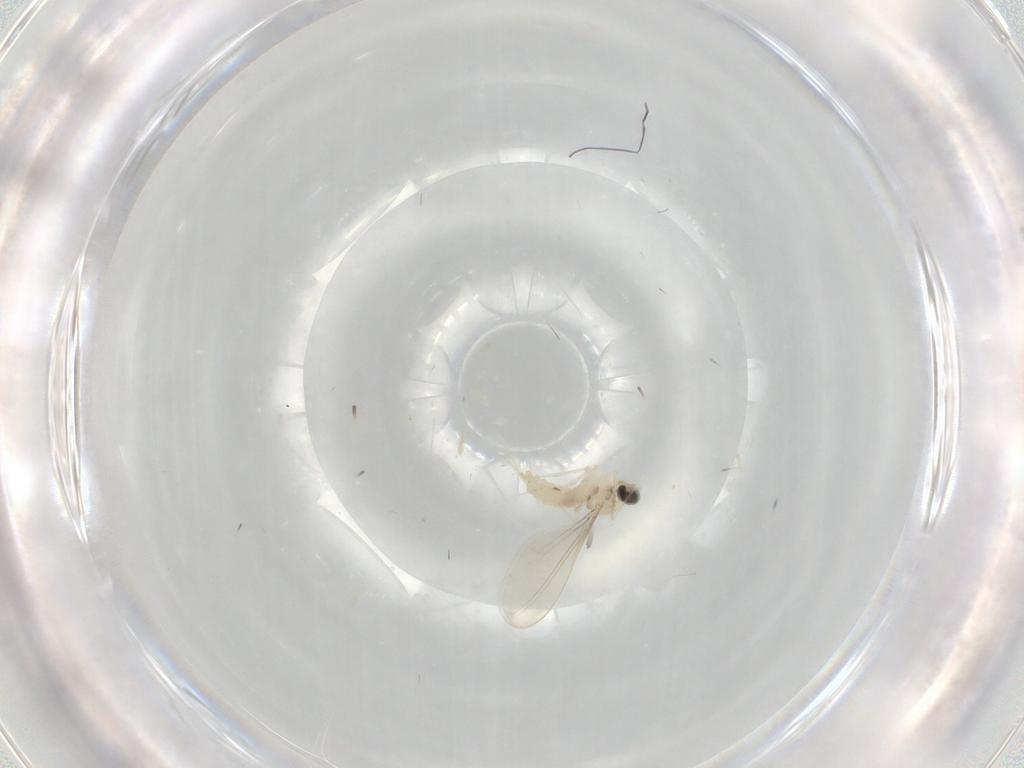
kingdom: Animalia
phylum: Arthropoda
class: Insecta
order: Diptera
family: Cecidomyiidae
